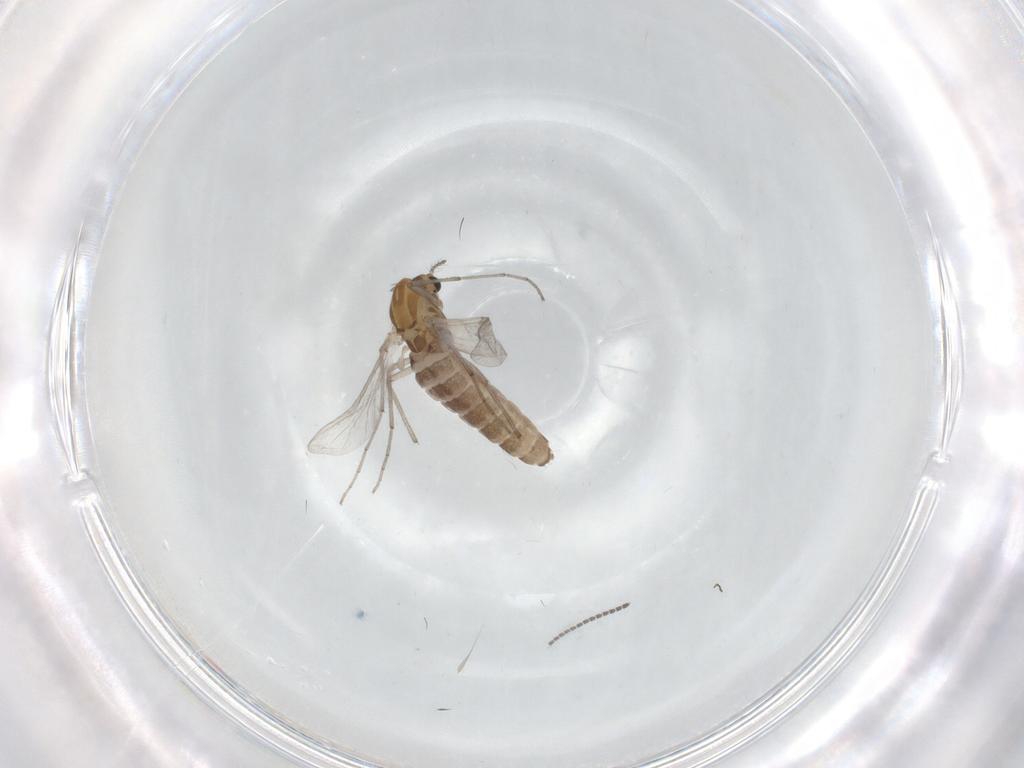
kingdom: Animalia
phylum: Arthropoda
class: Insecta
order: Diptera
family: Chironomidae
